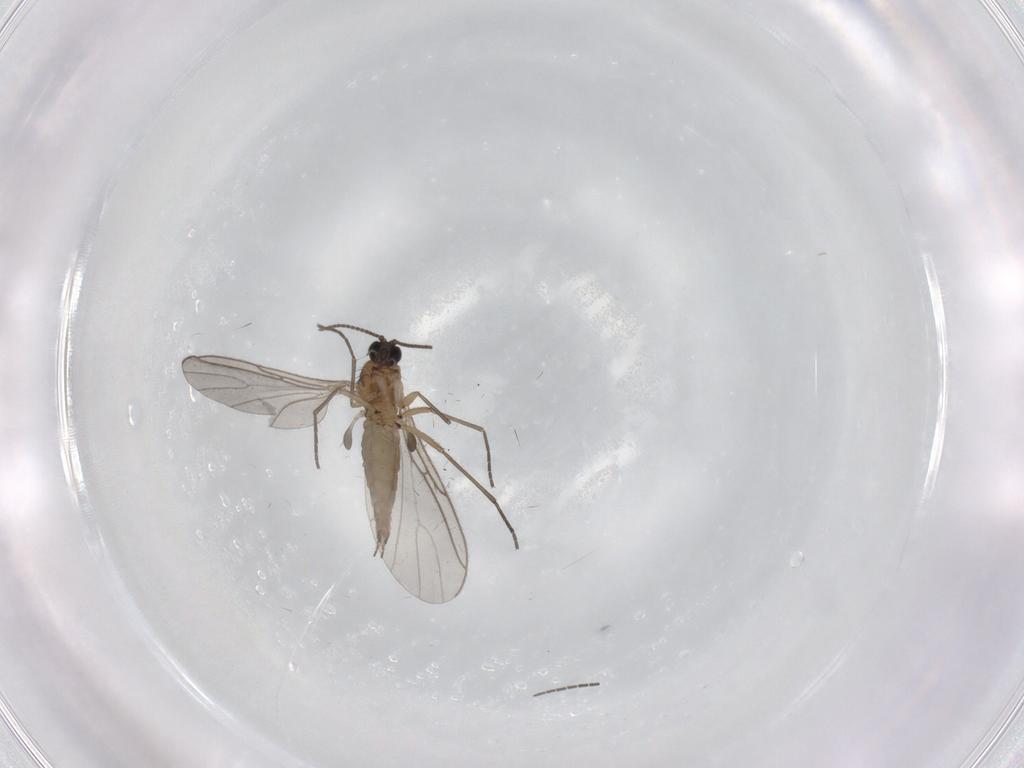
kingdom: Animalia
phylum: Arthropoda
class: Insecta
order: Diptera
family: Sciaridae
